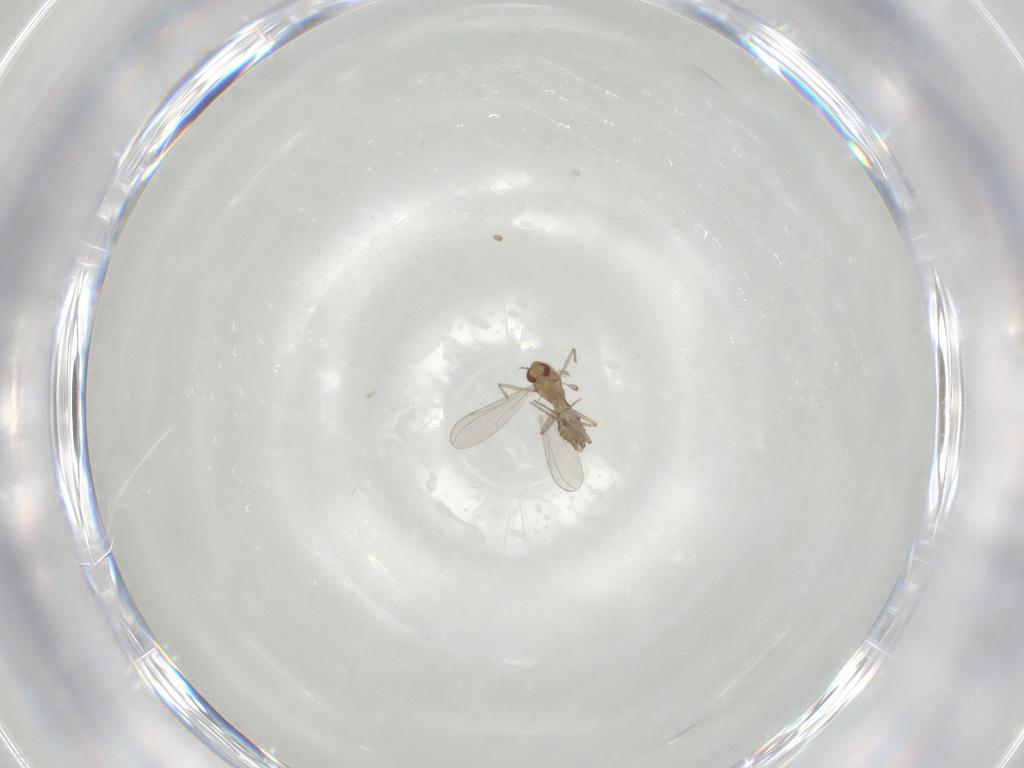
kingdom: Animalia
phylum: Arthropoda
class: Insecta
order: Diptera
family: Chironomidae
